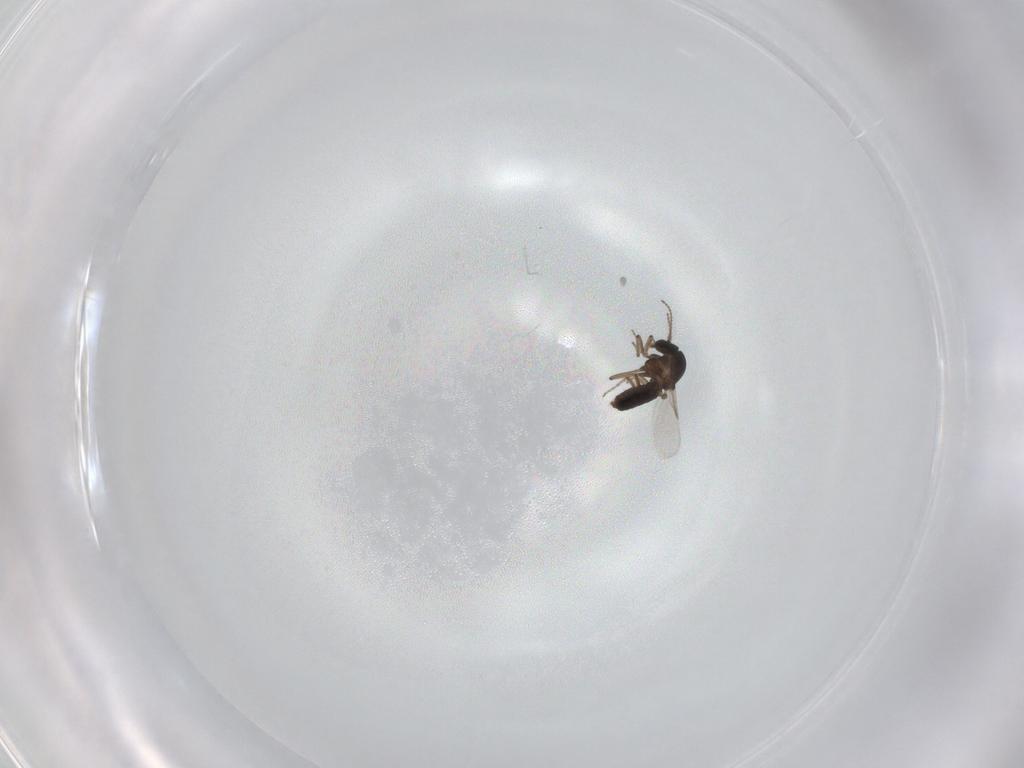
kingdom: Animalia
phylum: Arthropoda
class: Insecta
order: Diptera
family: Ceratopogonidae
